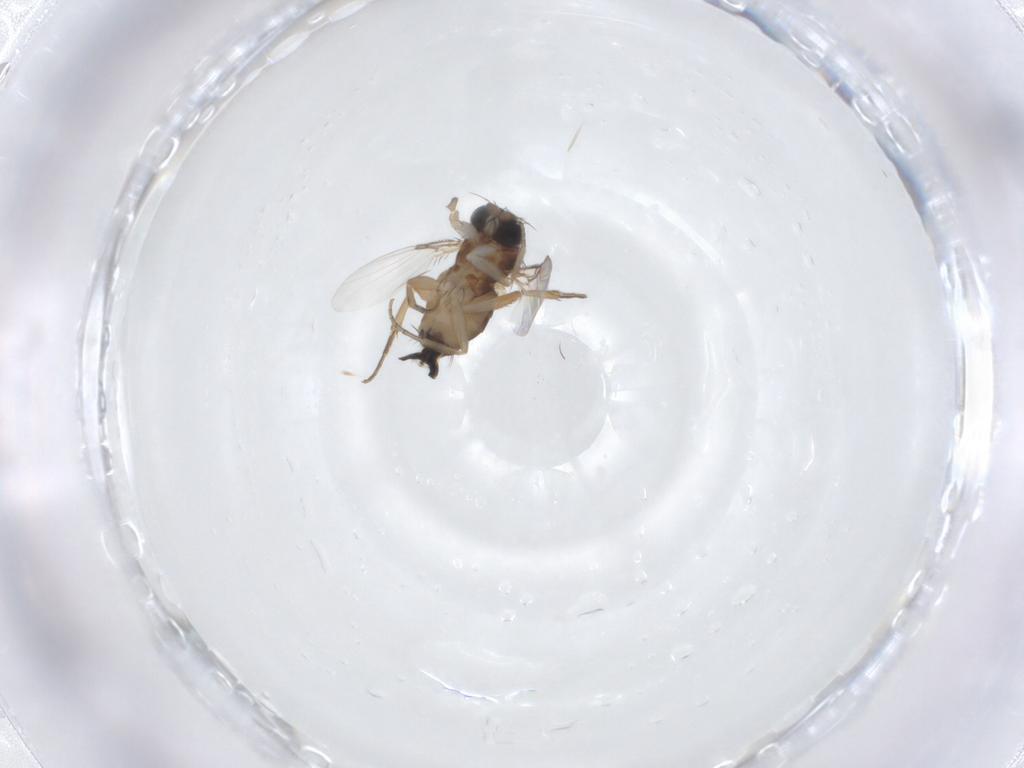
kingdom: Animalia
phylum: Arthropoda
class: Insecta
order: Diptera
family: Phoridae
